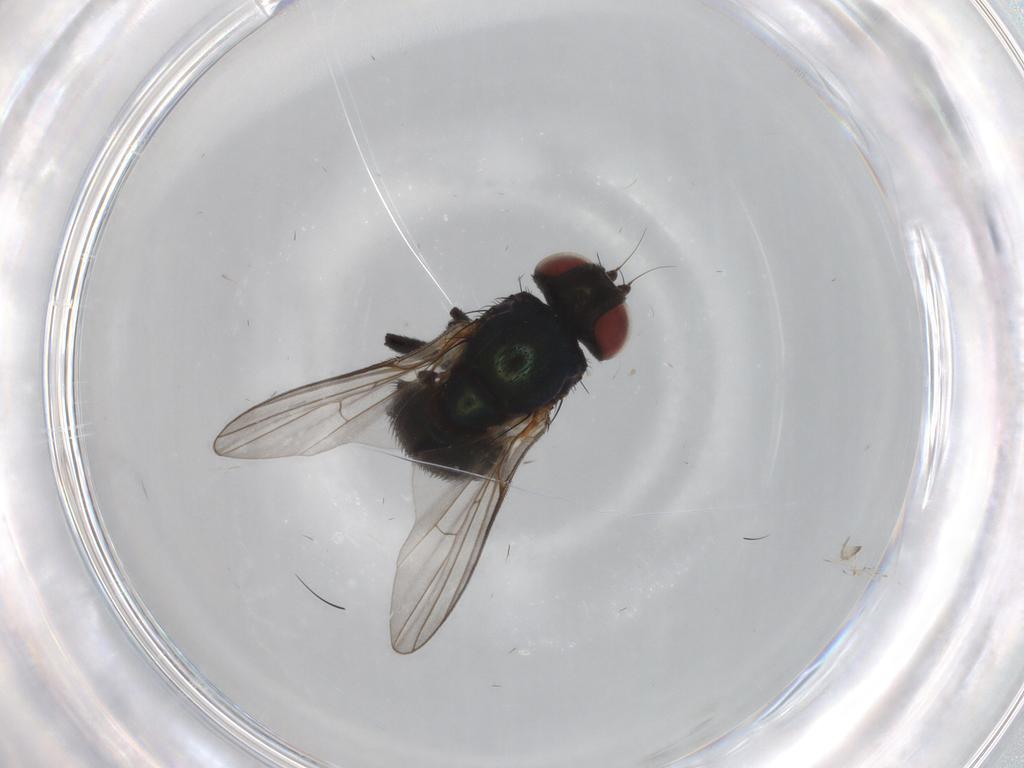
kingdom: Animalia
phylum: Arthropoda
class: Insecta
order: Diptera
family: Agromyzidae
